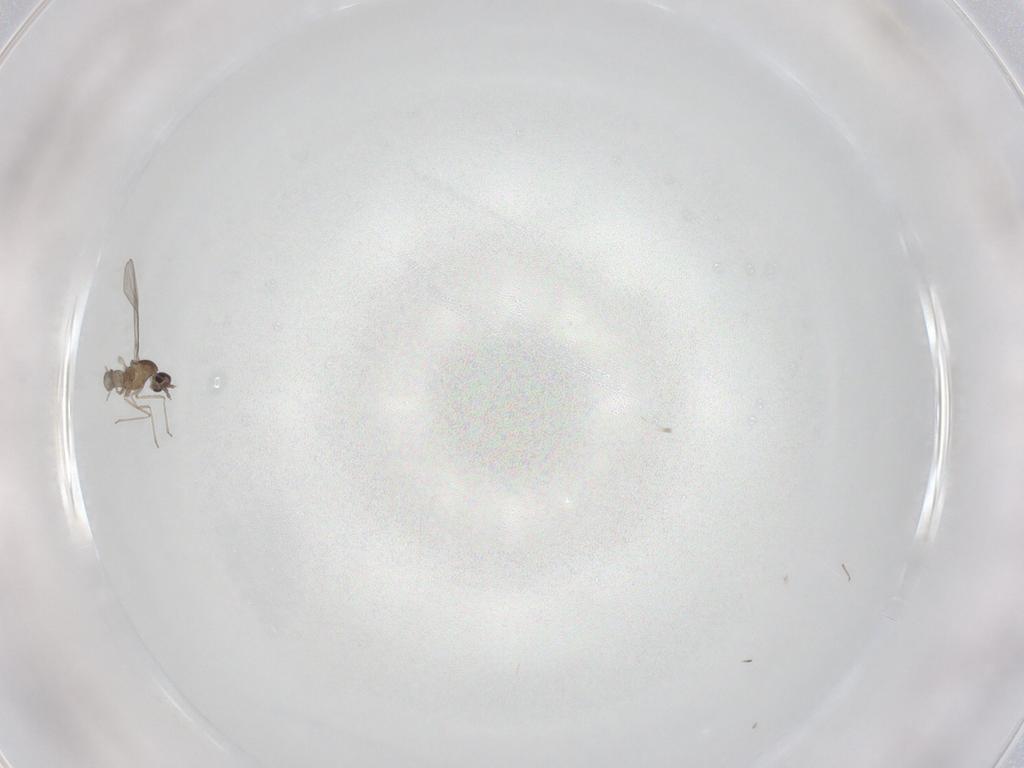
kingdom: Animalia
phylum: Arthropoda
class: Insecta
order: Diptera
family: Cecidomyiidae
